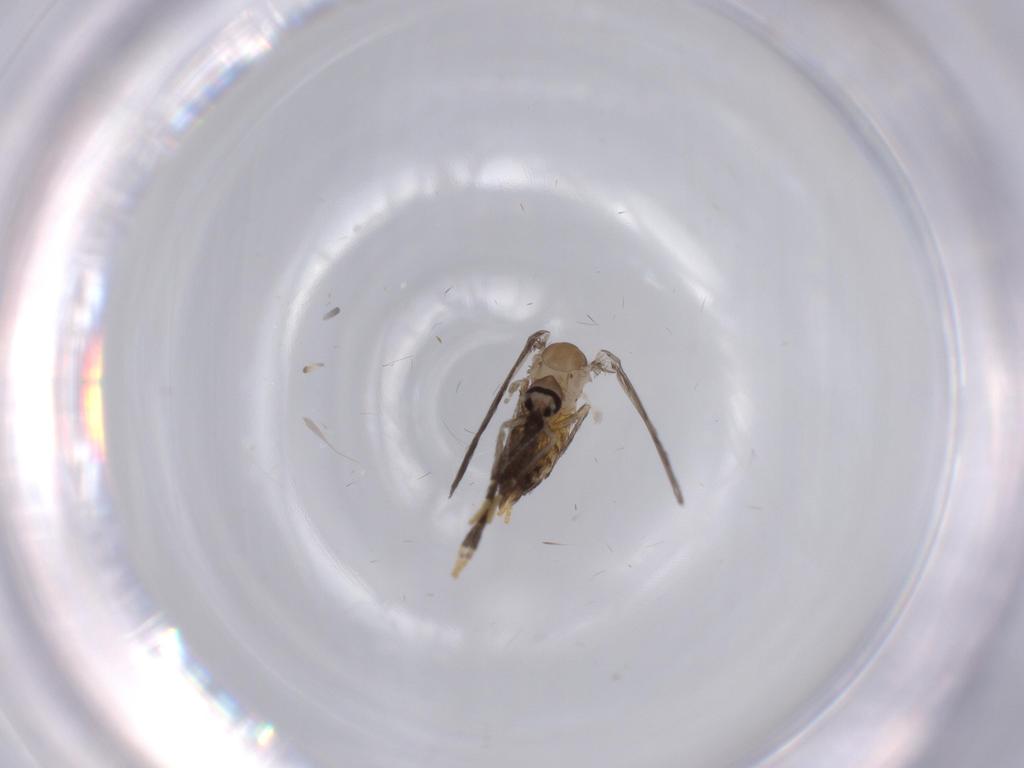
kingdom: Animalia
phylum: Arthropoda
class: Insecta
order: Diptera
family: Psychodidae
